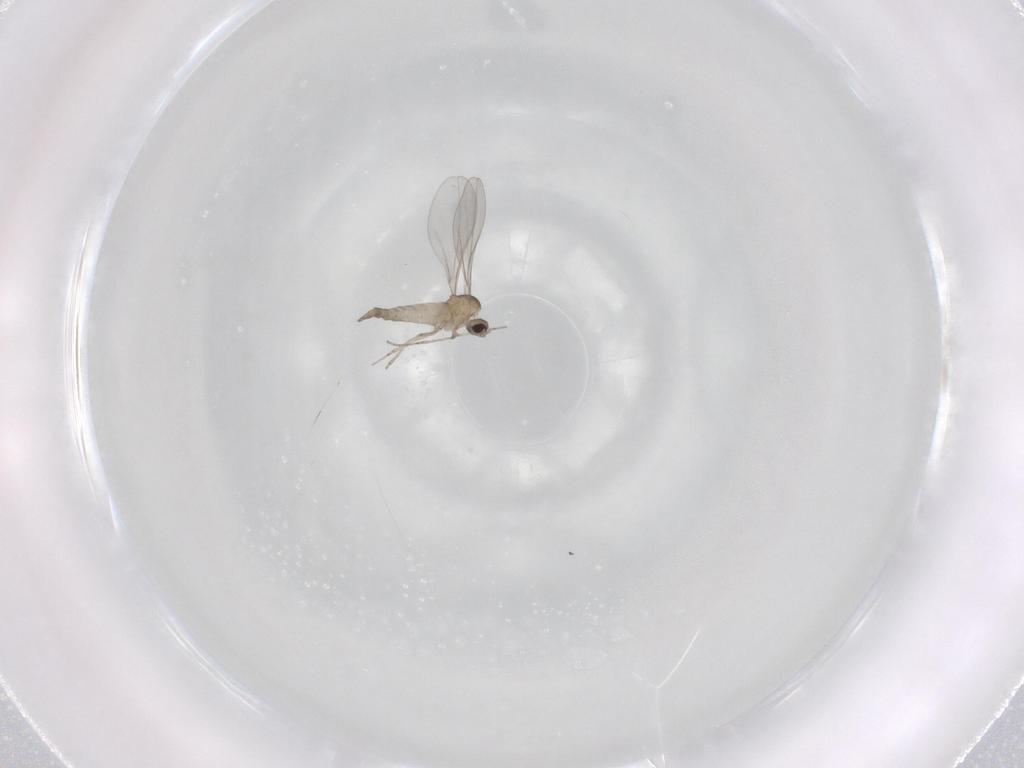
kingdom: Animalia
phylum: Arthropoda
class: Insecta
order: Diptera
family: Cecidomyiidae
